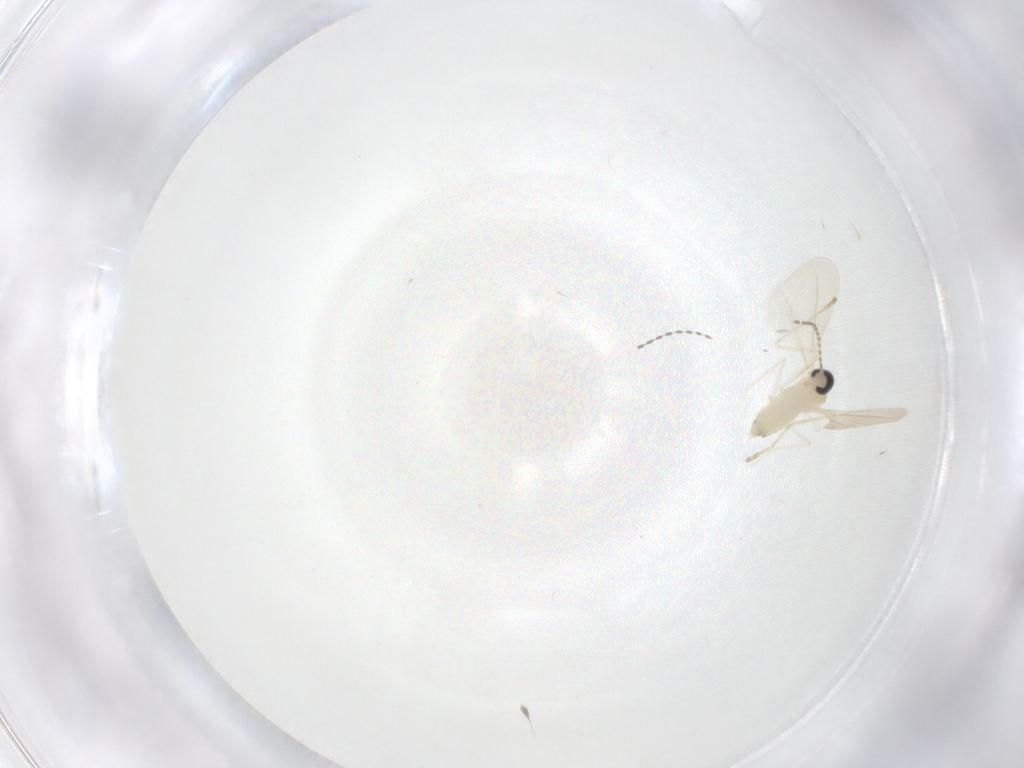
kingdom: Animalia
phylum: Arthropoda
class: Insecta
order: Diptera
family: Cecidomyiidae
